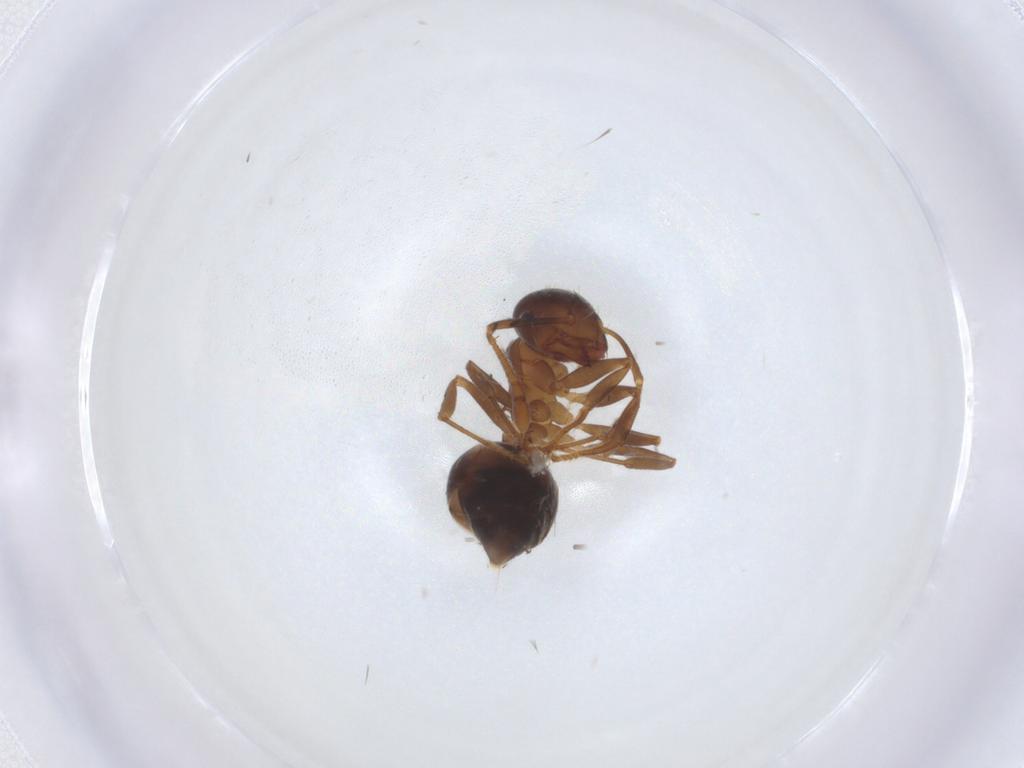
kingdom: Animalia
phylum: Arthropoda
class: Insecta
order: Hymenoptera
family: Formicidae
